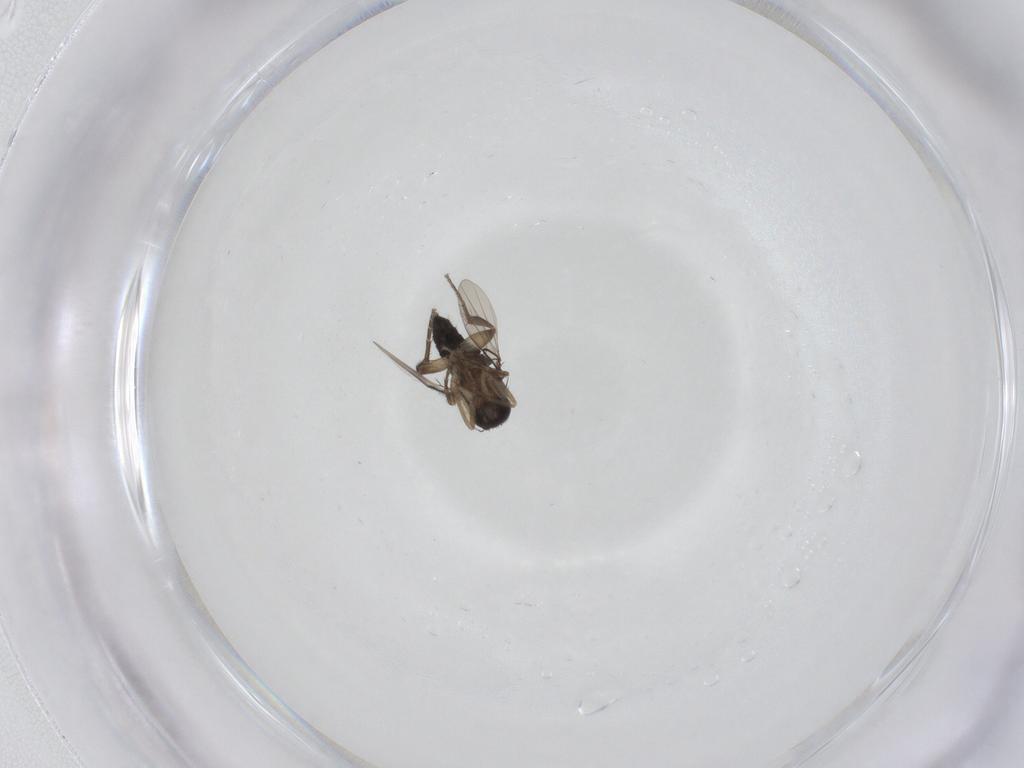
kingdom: Animalia
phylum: Arthropoda
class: Insecta
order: Diptera
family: Phoridae
